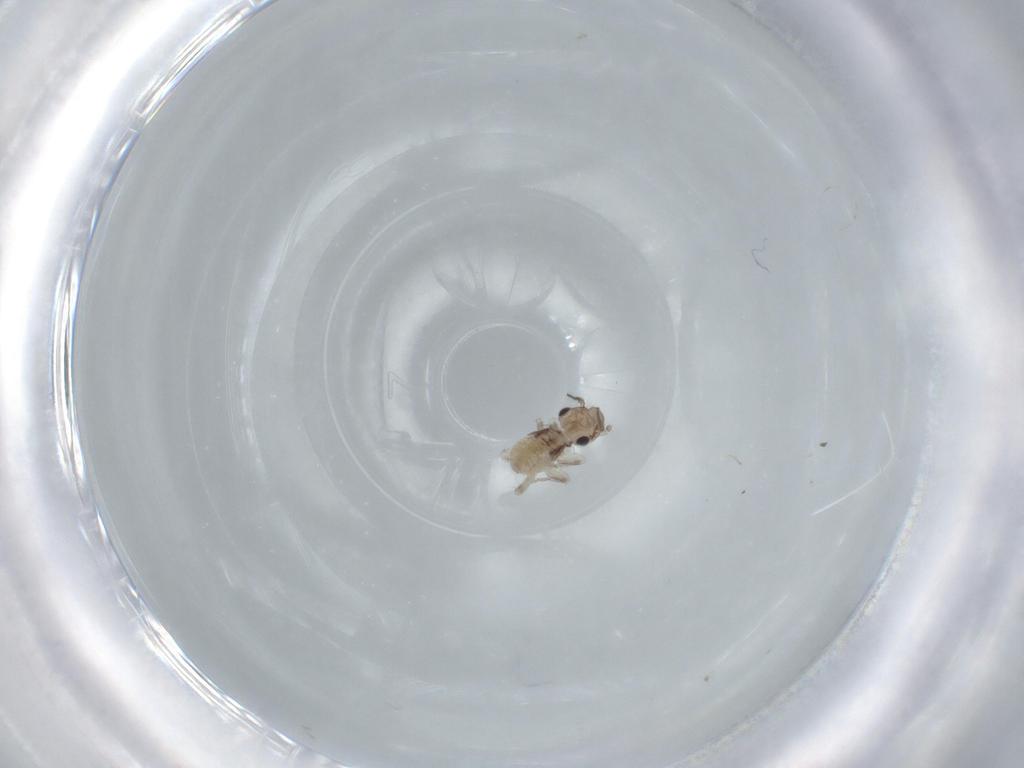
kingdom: Animalia
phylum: Arthropoda
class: Insecta
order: Psocodea
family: Lepidopsocidae
